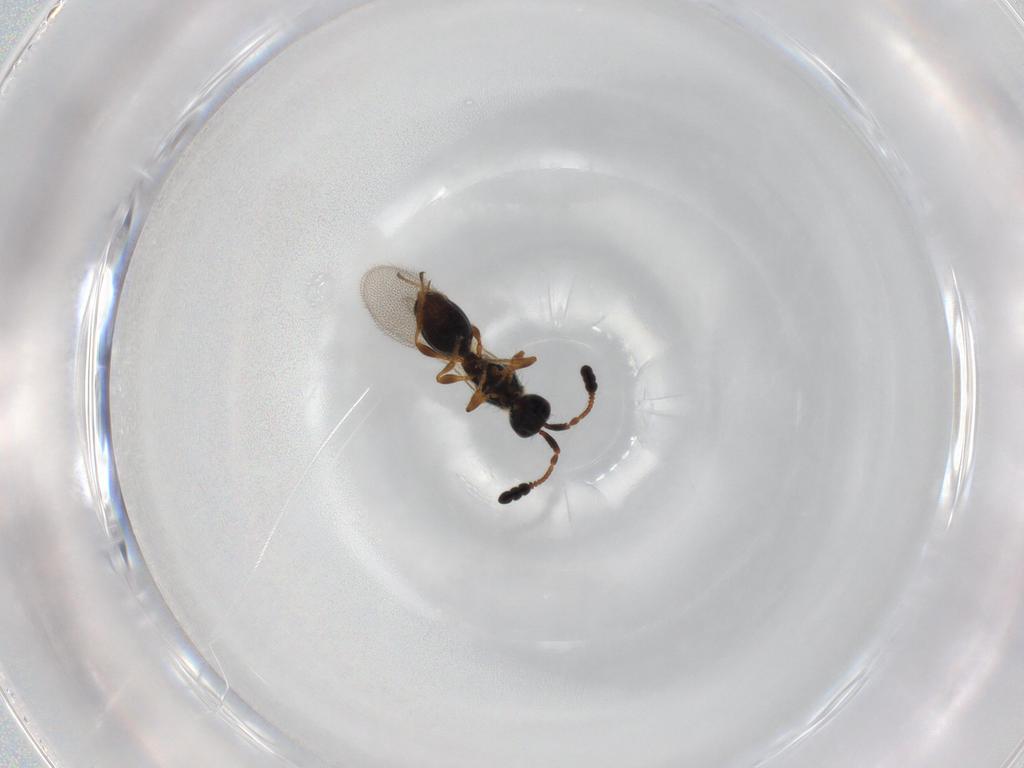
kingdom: Animalia
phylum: Arthropoda
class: Insecta
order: Hymenoptera
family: Diapriidae
